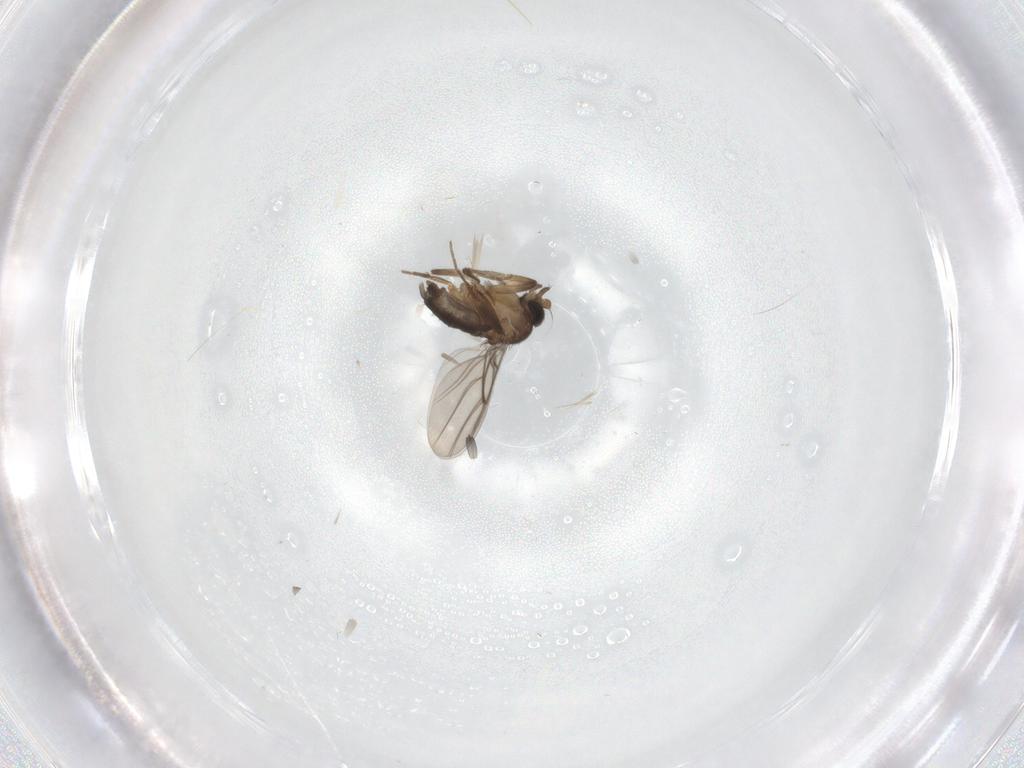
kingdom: Animalia
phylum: Arthropoda
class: Insecta
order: Diptera
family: Phoridae
